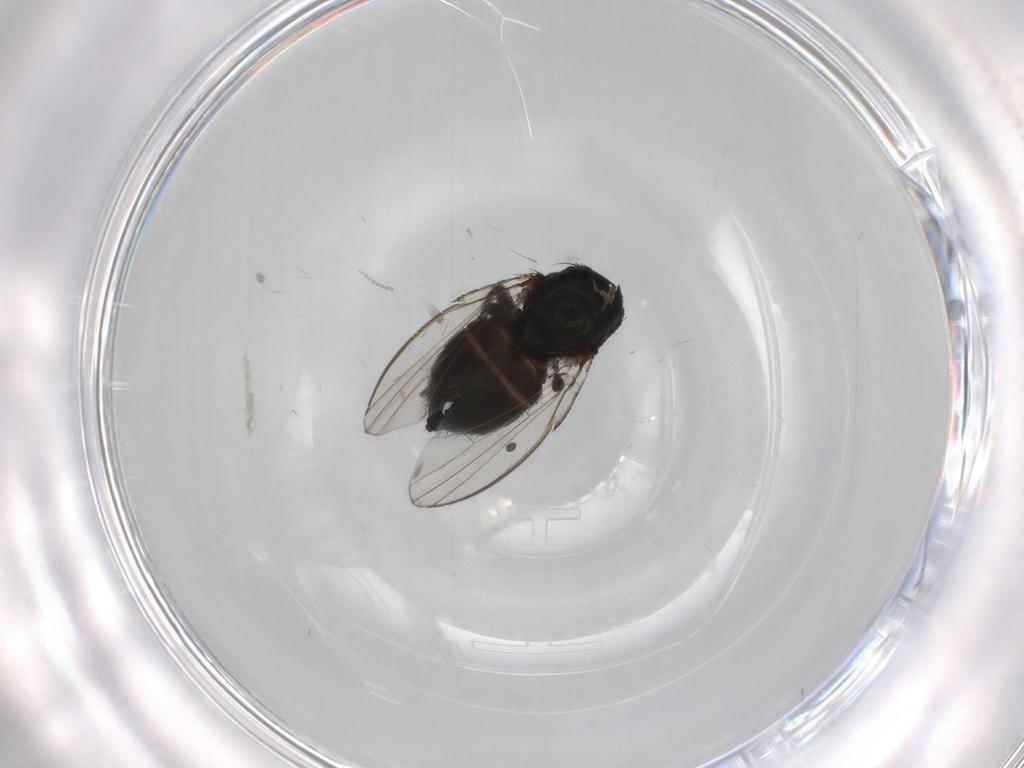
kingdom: Animalia
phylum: Arthropoda
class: Insecta
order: Diptera
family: Milichiidae
